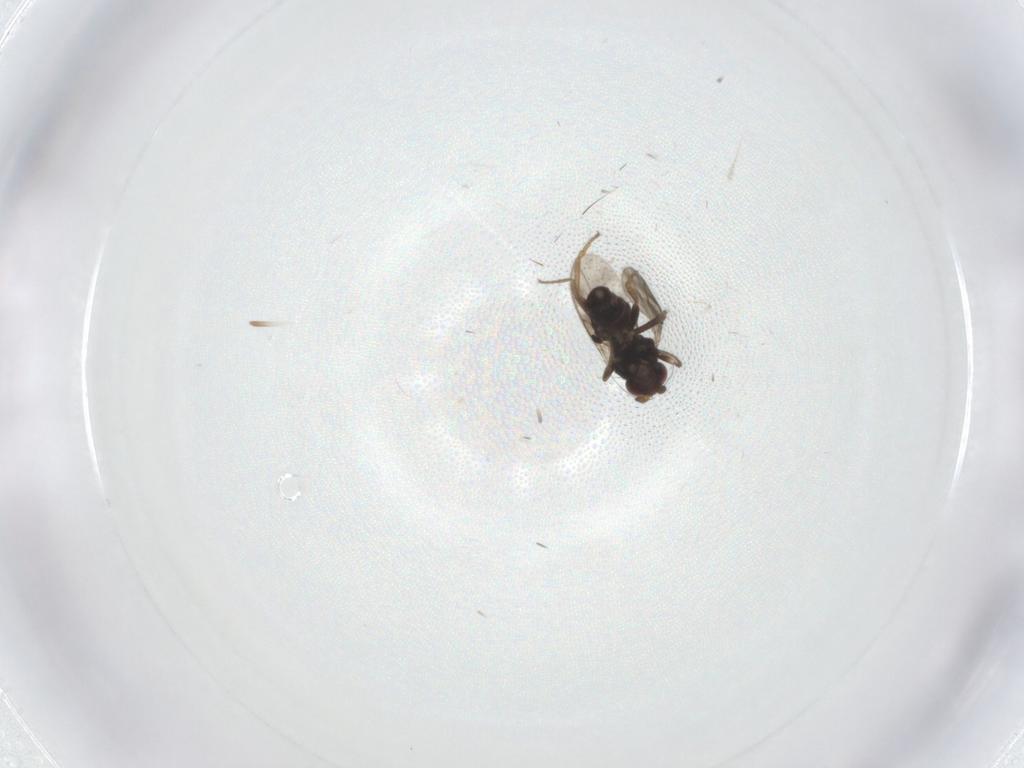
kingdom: Animalia
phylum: Arthropoda
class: Insecta
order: Diptera
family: Sphaeroceridae
